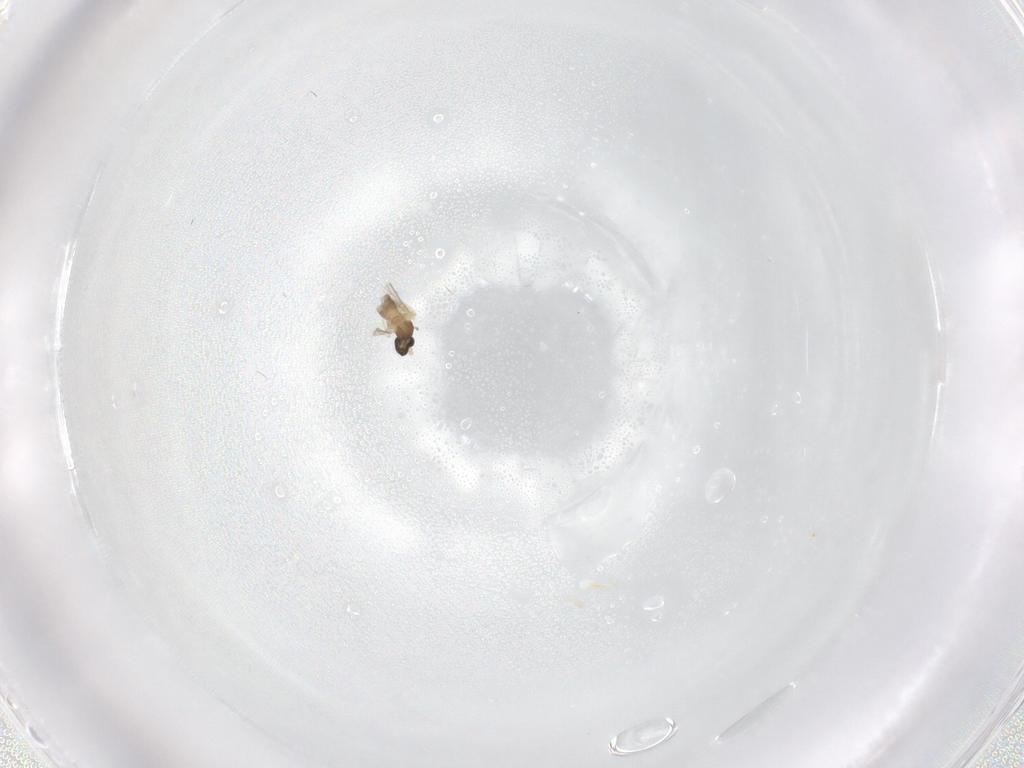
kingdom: Animalia
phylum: Arthropoda
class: Insecta
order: Diptera
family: Cecidomyiidae
